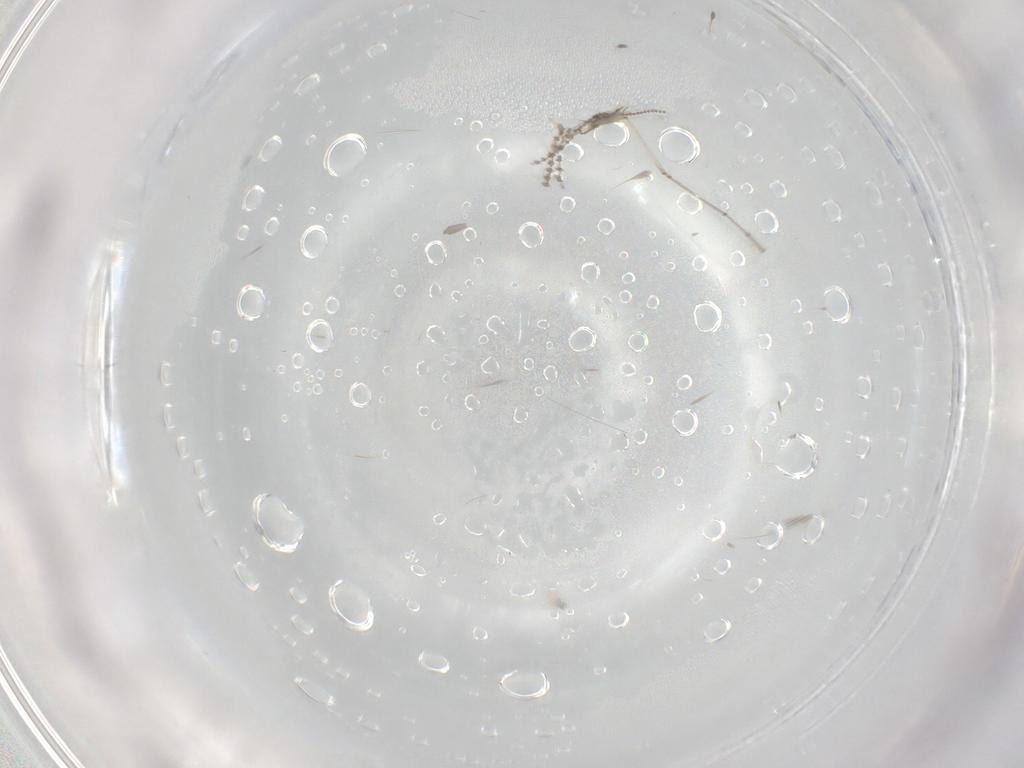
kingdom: Animalia
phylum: Arthropoda
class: Insecta
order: Diptera
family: Cecidomyiidae
